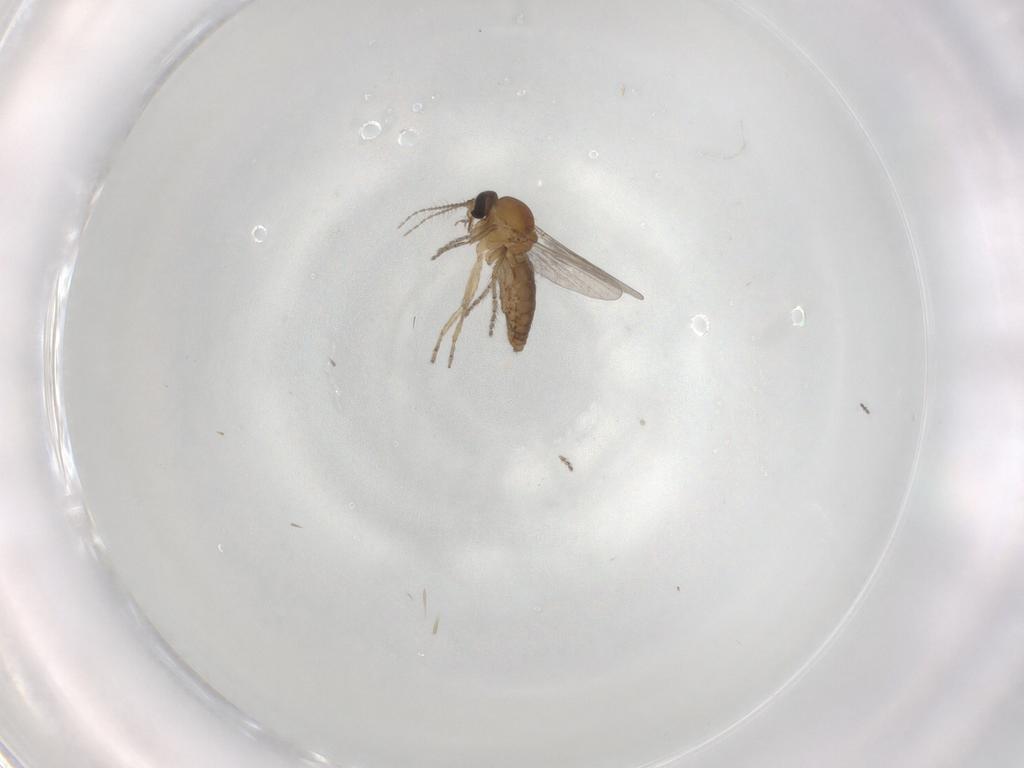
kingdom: Animalia
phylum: Arthropoda
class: Insecta
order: Diptera
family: Ceratopogonidae
